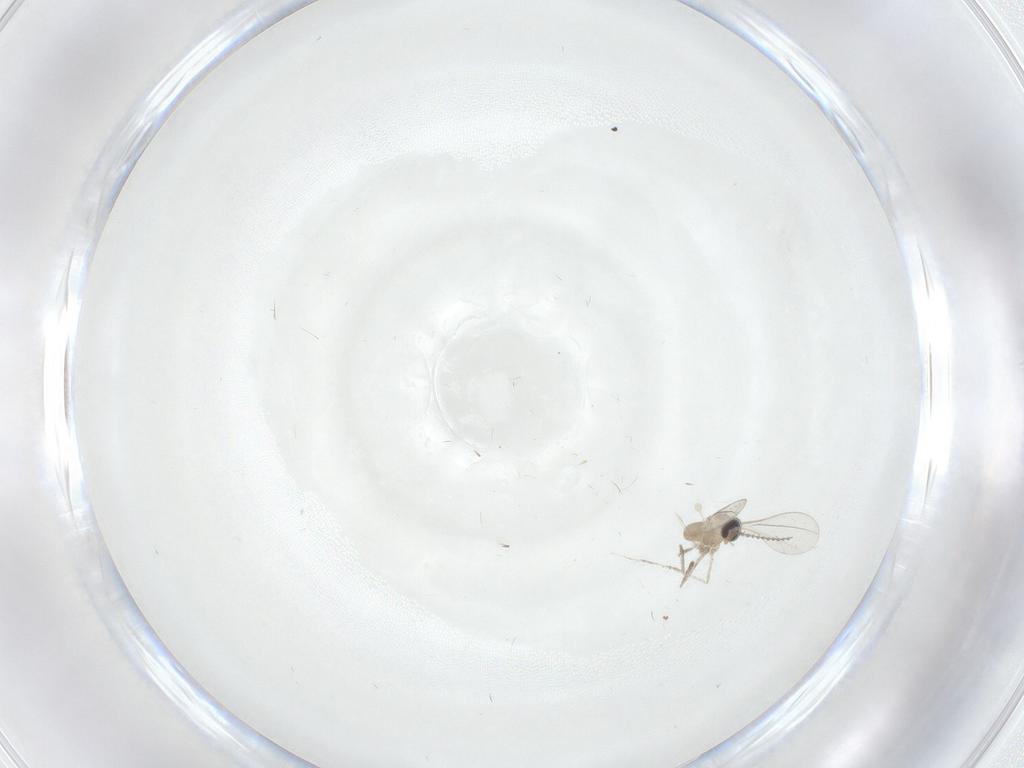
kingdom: Animalia
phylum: Arthropoda
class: Insecta
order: Diptera
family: Cecidomyiidae
